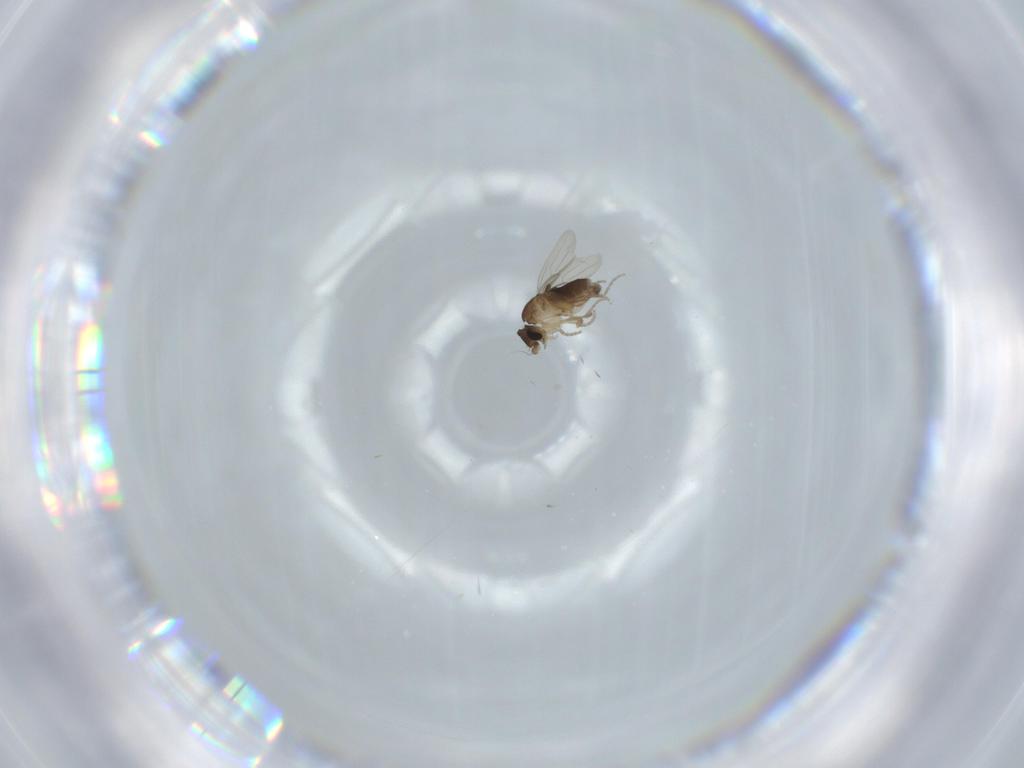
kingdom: Animalia
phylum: Arthropoda
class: Insecta
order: Diptera
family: Phoridae
